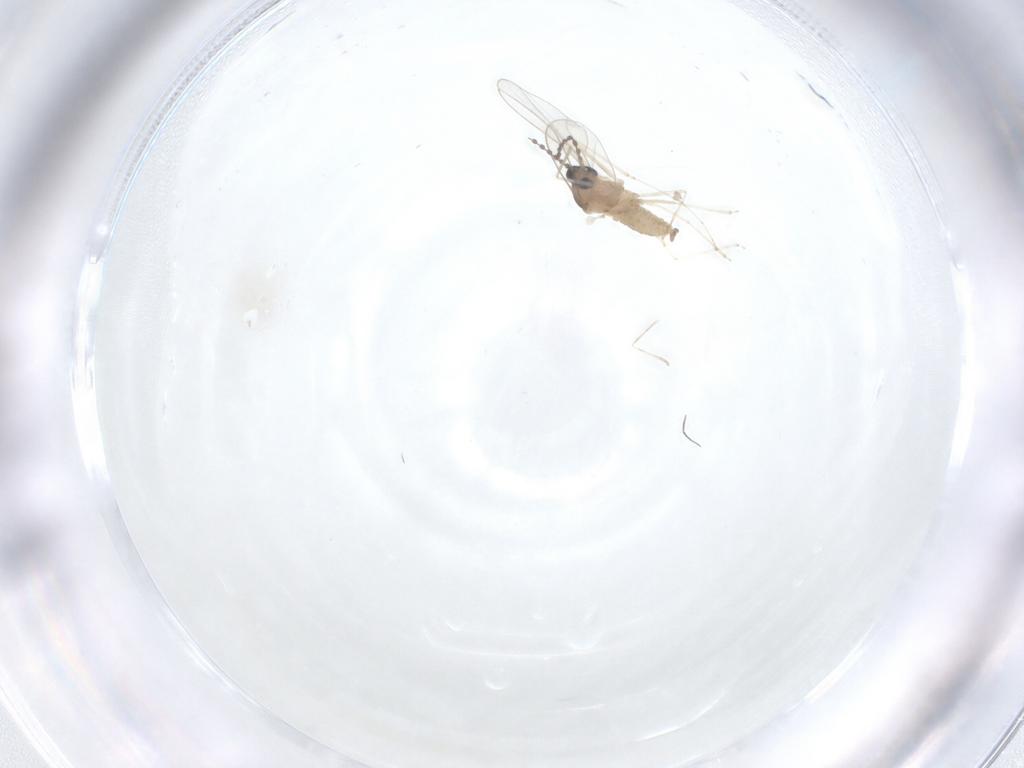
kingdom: Animalia
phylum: Arthropoda
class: Insecta
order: Diptera
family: Cecidomyiidae
